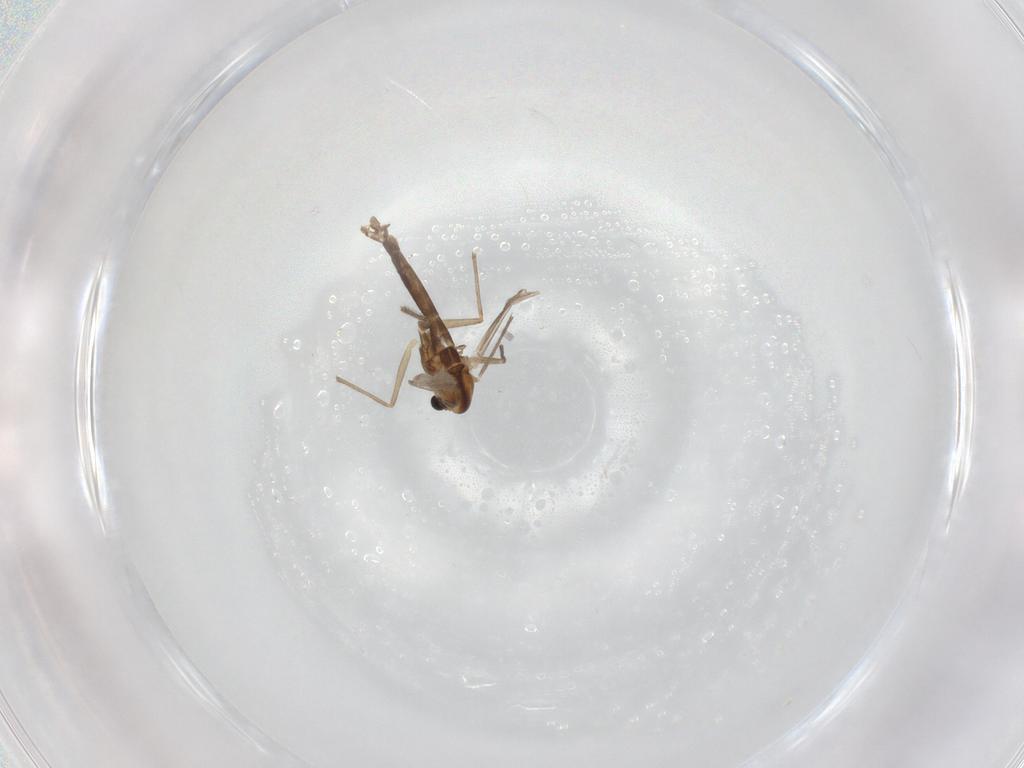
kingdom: Animalia
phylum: Arthropoda
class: Insecta
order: Diptera
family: Chironomidae
